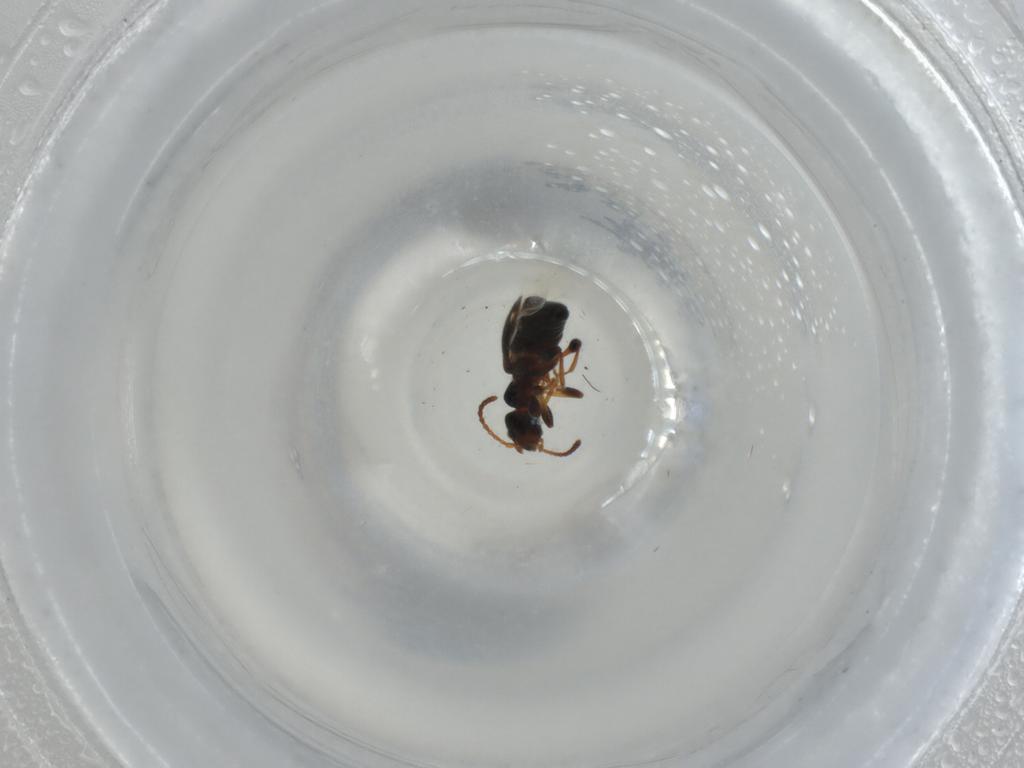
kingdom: Animalia
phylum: Arthropoda
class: Insecta
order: Coleoptera
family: Anthicidae
